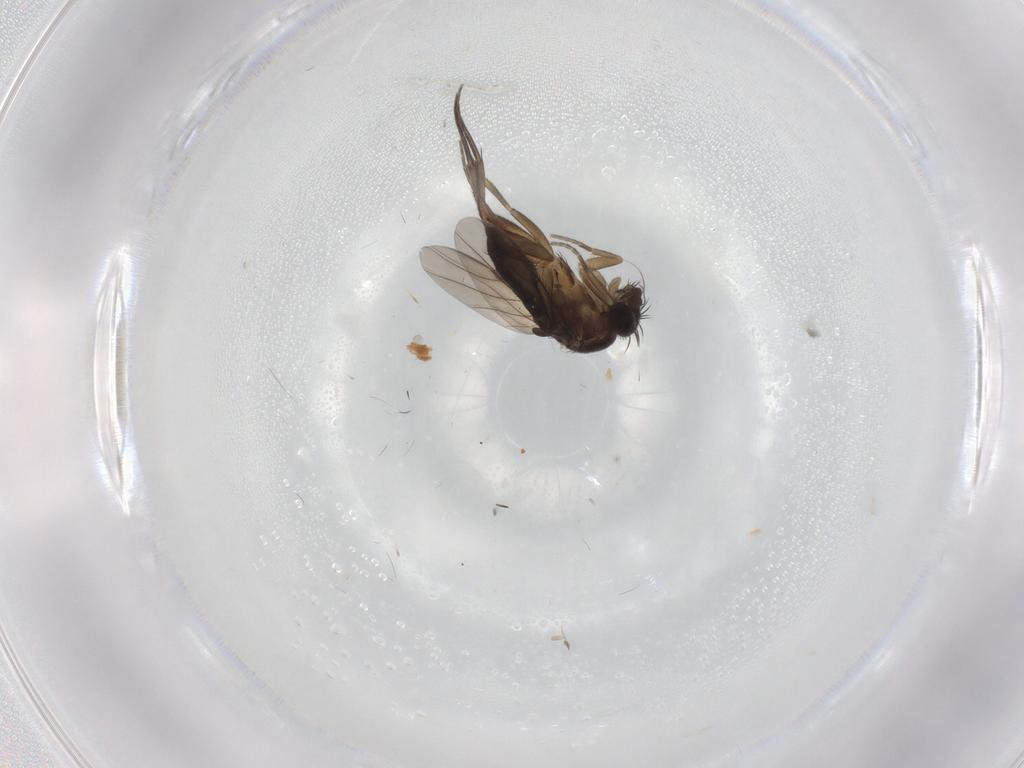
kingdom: Animalia
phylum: Arthropoda
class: Insecta
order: Diptera
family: Phoridae
